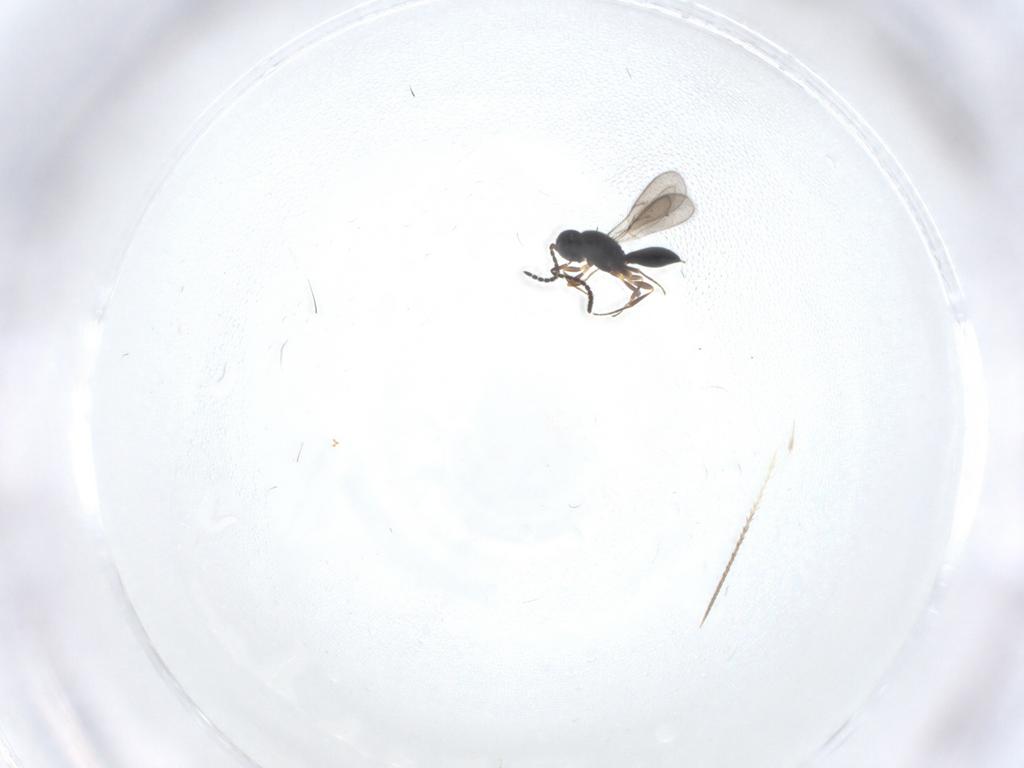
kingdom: Animalia
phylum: Arthropoda
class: Insecta
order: Hymenoptera
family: Scelionidae
